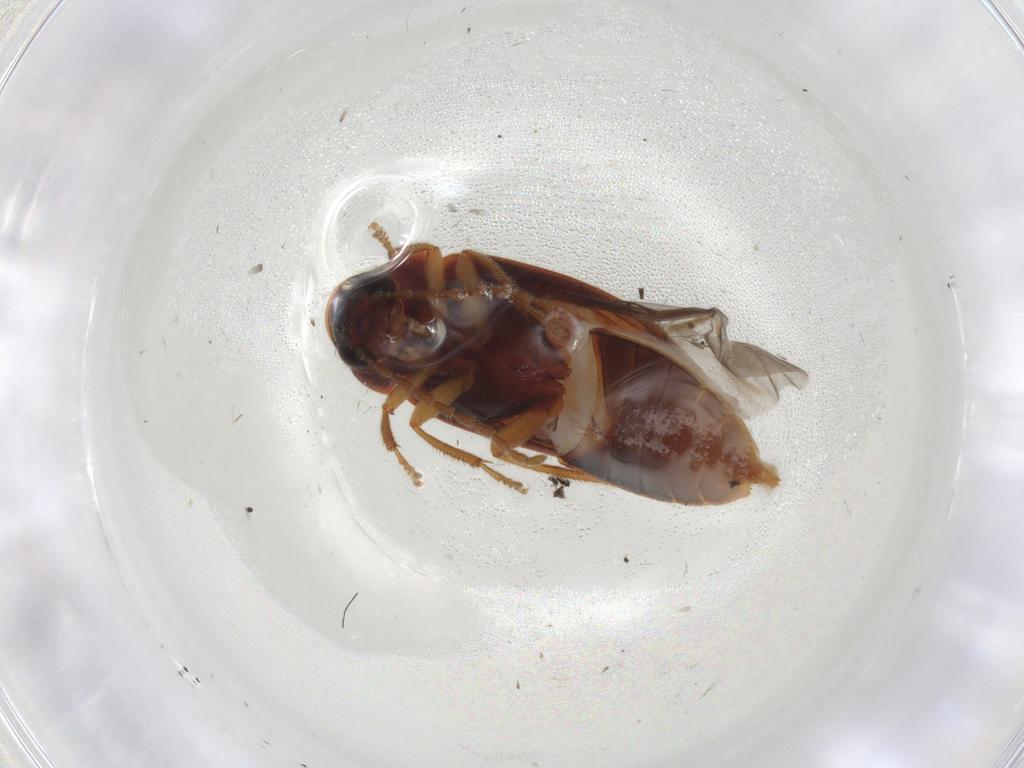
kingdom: Animalia
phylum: Arthropoda
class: Insecta
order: Coleoptera
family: Ptilodactylidae
